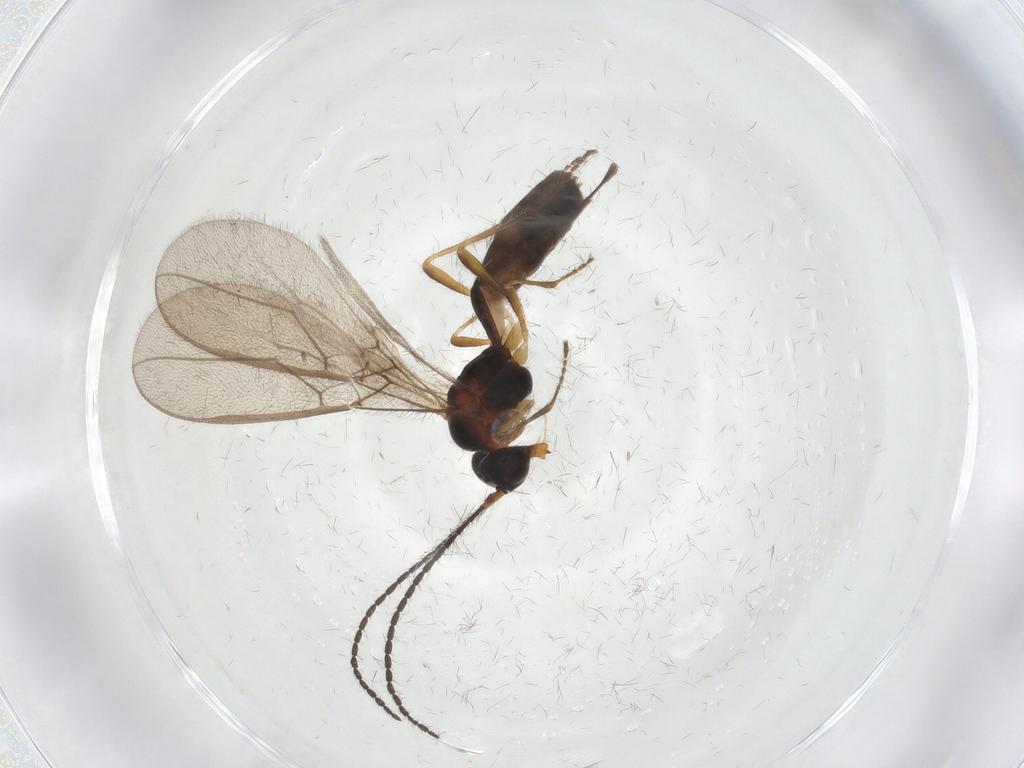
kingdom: Animalia
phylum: Arthropoda
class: Insecta
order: Hymenoptera
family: Braconidae
